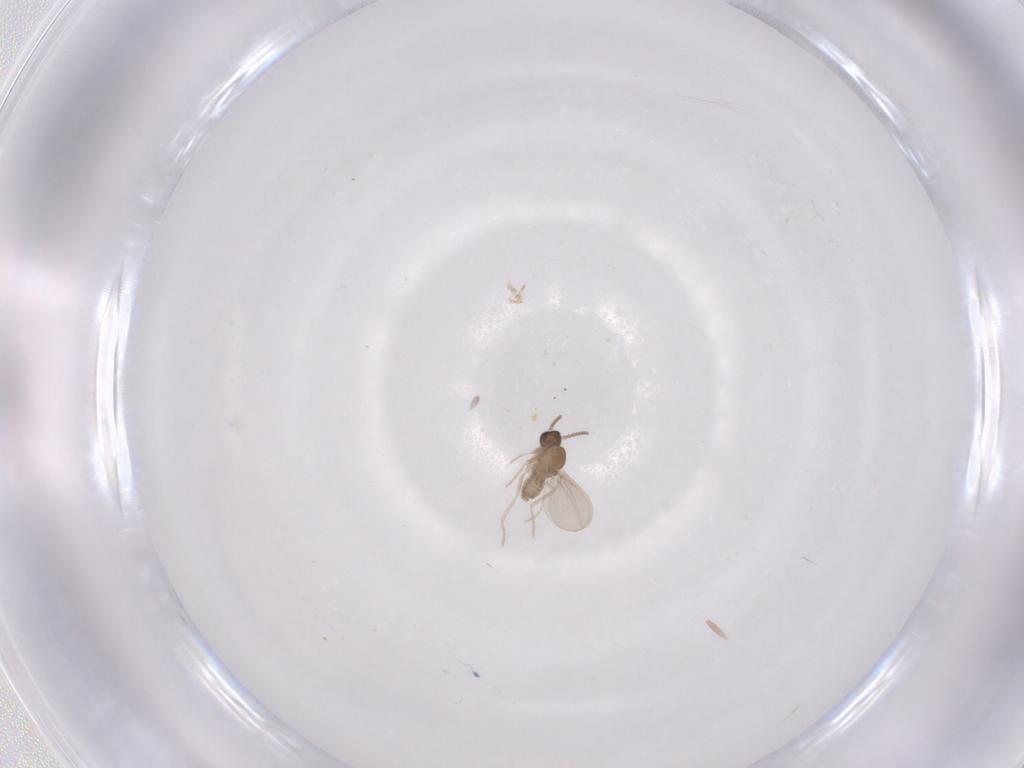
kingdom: Animalia
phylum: Arthropoda
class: Insecta
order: Diptera
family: Cecidomyiidae
